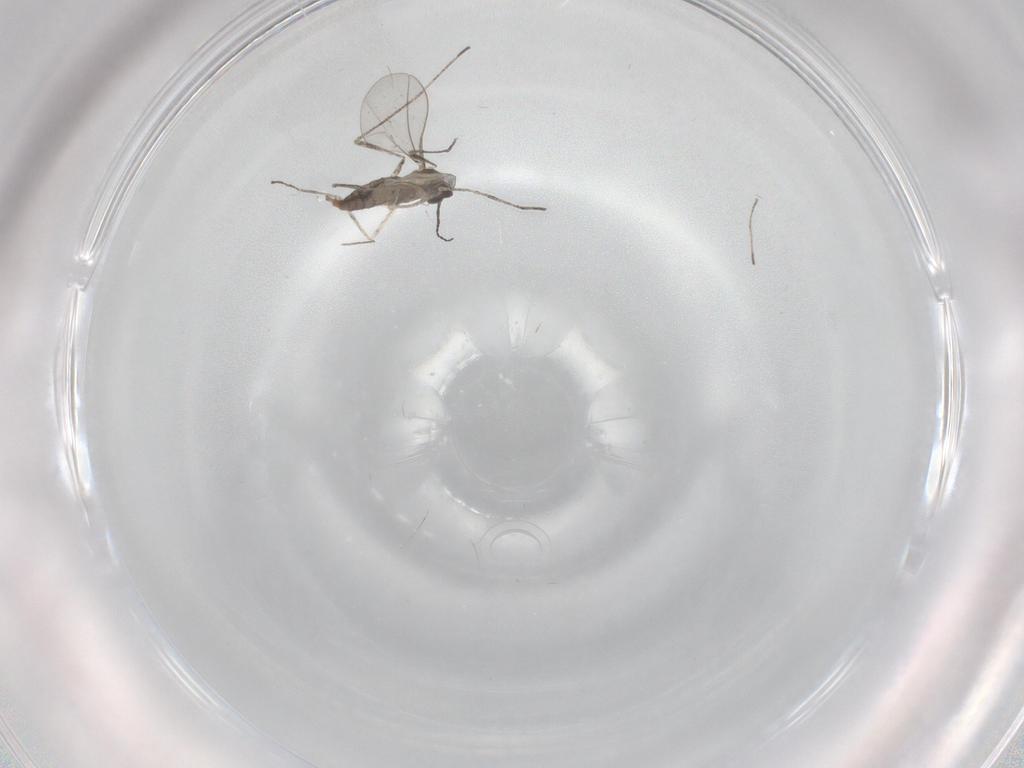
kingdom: Animalia
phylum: Arthropoda
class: Insecta
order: Diptera
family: Cecidomyiidae
